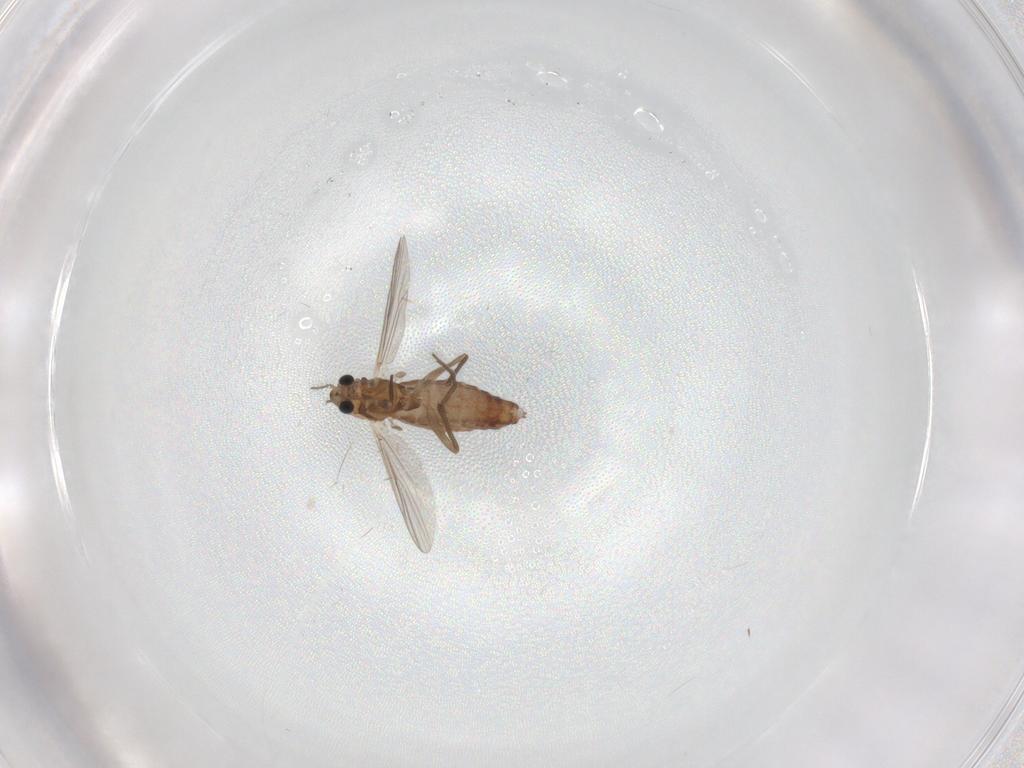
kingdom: Animalia
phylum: Arthropoda
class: Insecta
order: Diptera
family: Chironomidae
